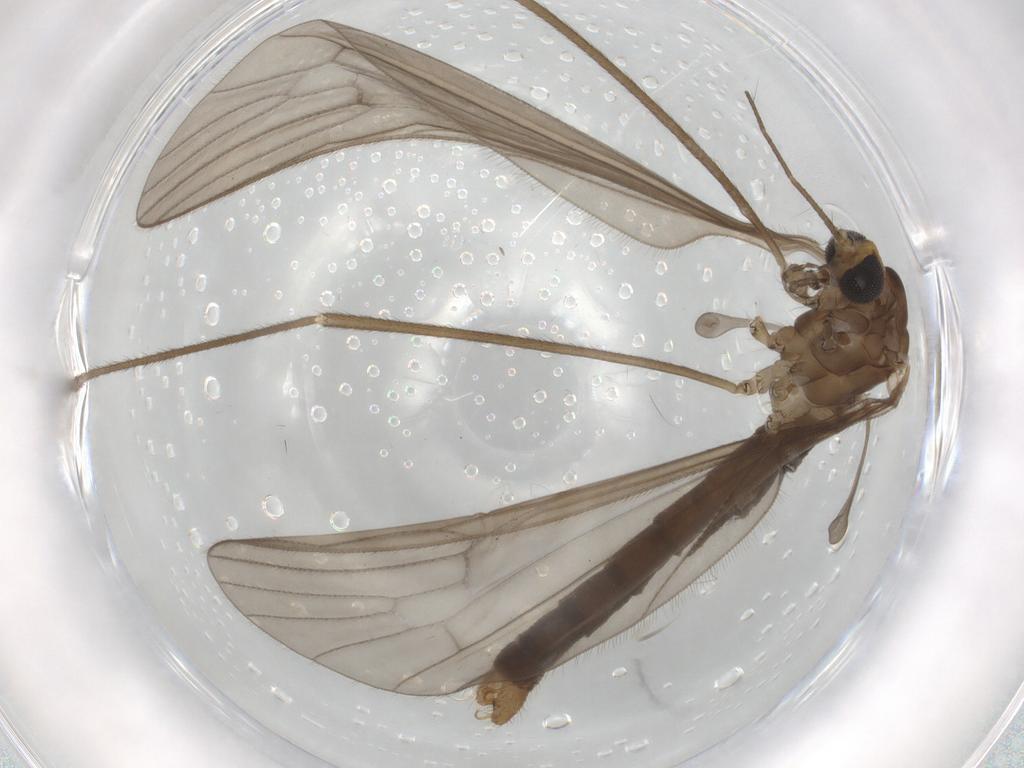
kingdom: Animalia
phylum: Arthropoda
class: Insecta
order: Diptera
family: Limoniidae
